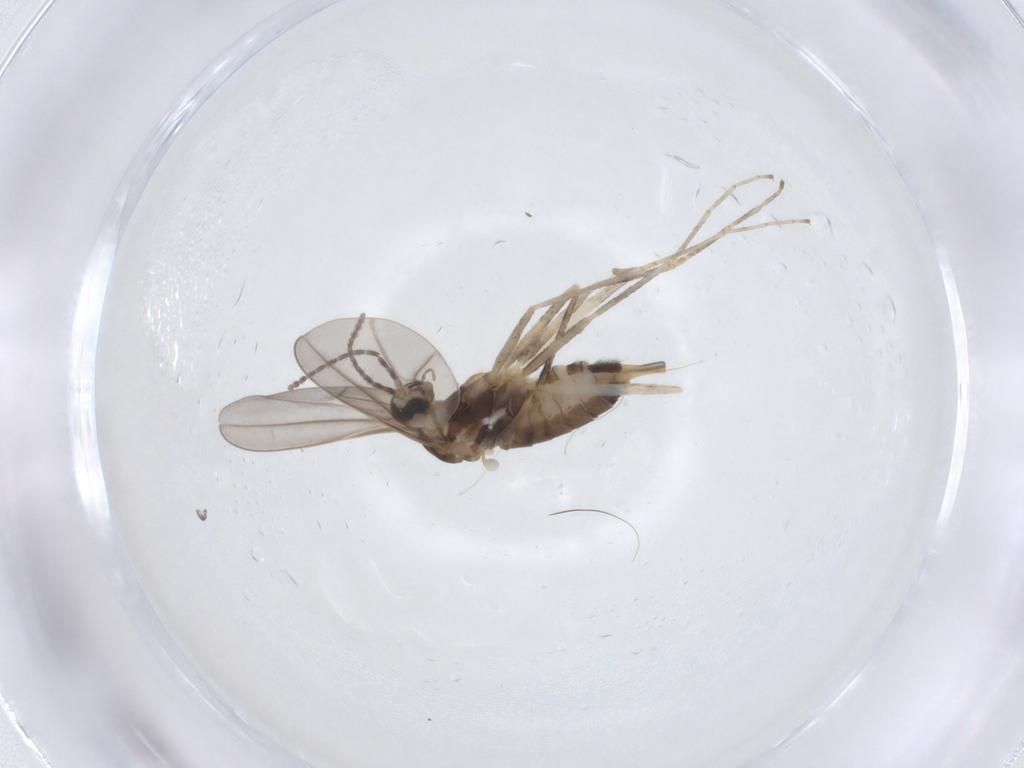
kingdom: Animalia
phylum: Arthropoda
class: Insecta
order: Diptera
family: Cecidomyiidae
